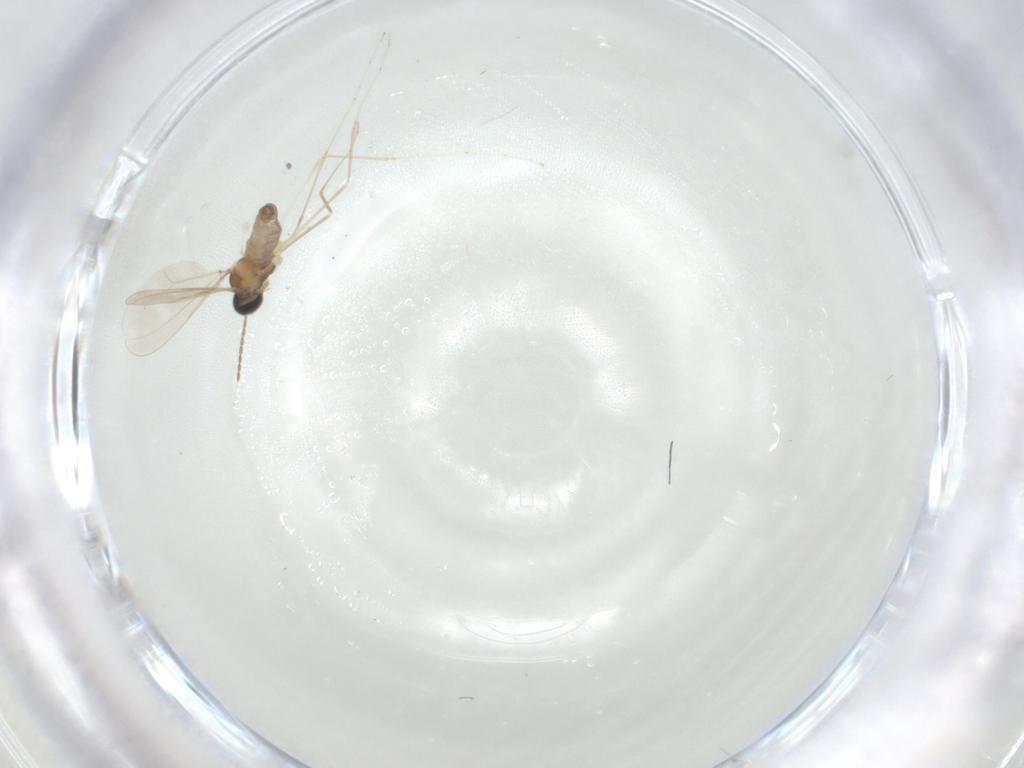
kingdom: Animalia
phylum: Arthropoda
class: Insecta
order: Diptera
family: Cecidomyiidae
